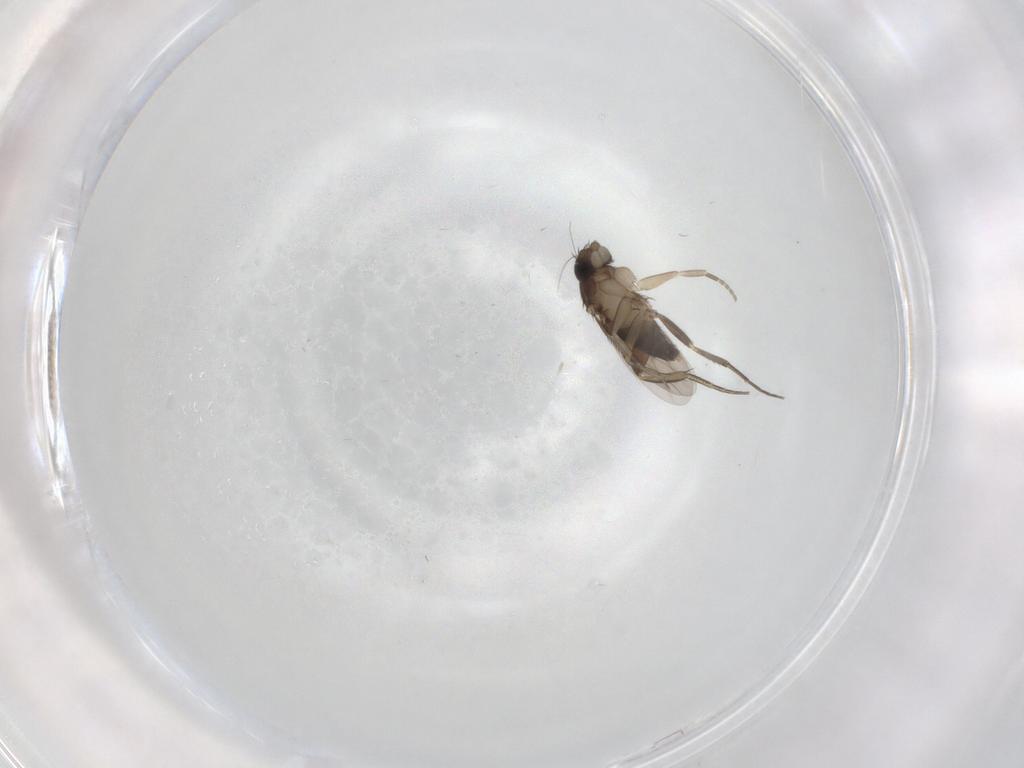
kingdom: Animalia
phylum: Arthropoda
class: Insecta
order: Diptera
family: Phoridae
